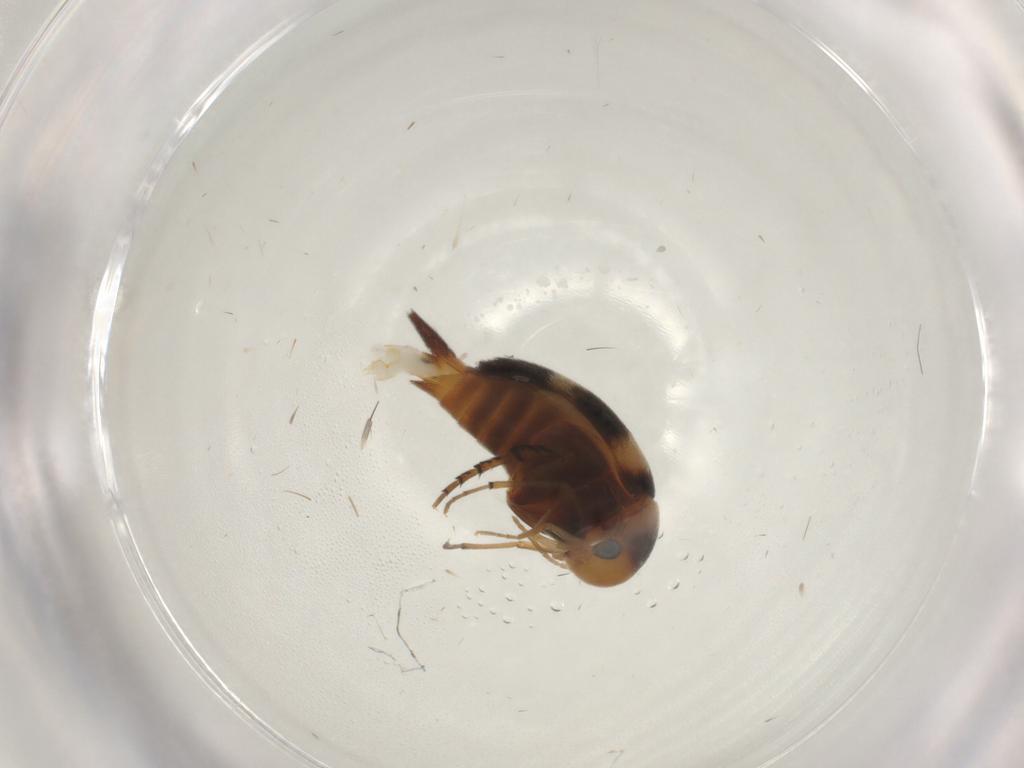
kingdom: Animalia
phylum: Arthropoda
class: Insecta
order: Coleoptera
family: Mordellidae
